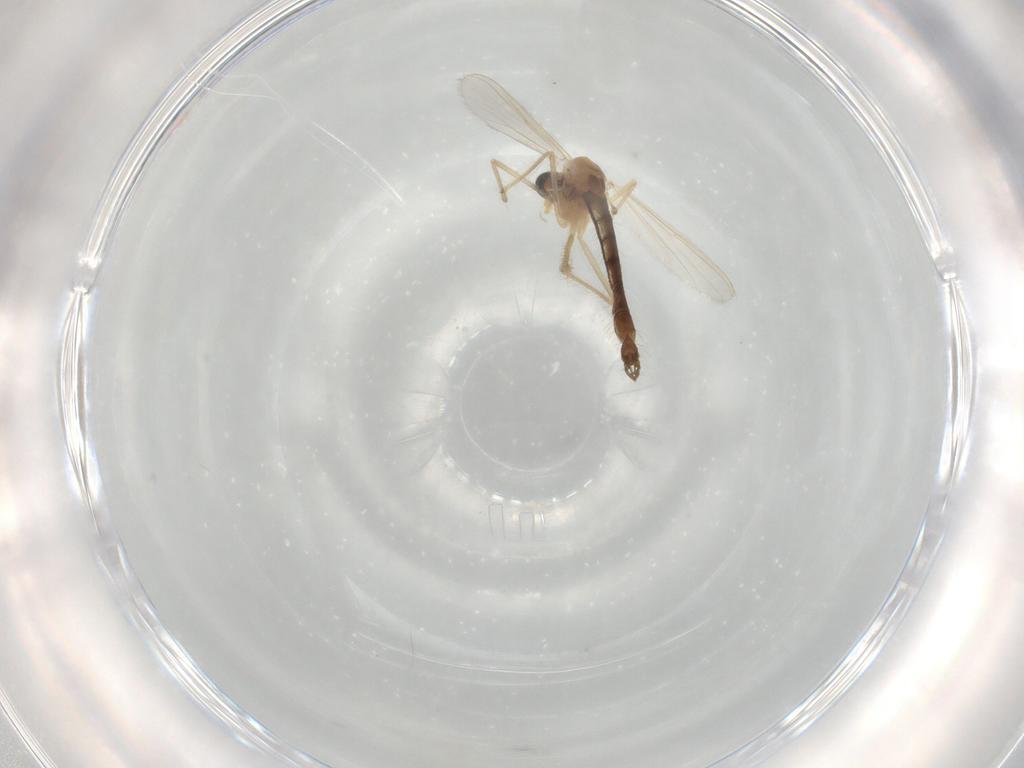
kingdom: Animalia
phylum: Arthropoda
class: Insecta
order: Diptera
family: Chironomidae
